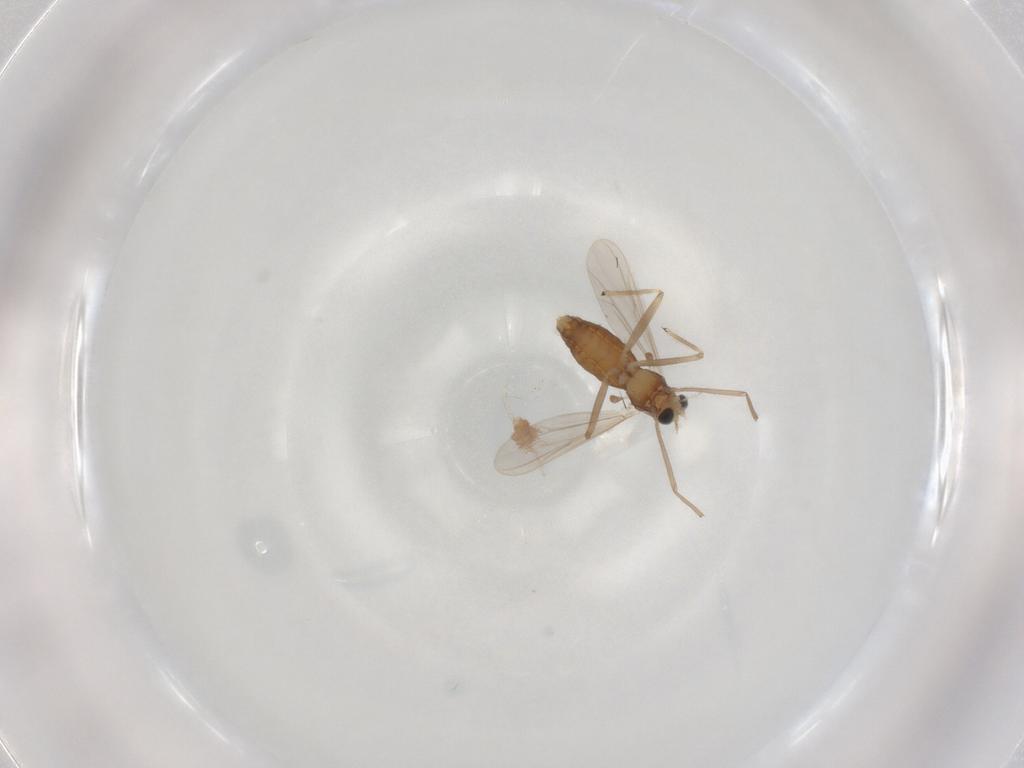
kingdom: Animalia
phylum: Arthropoda
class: Insecta
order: Diptera
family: Chironomidae
